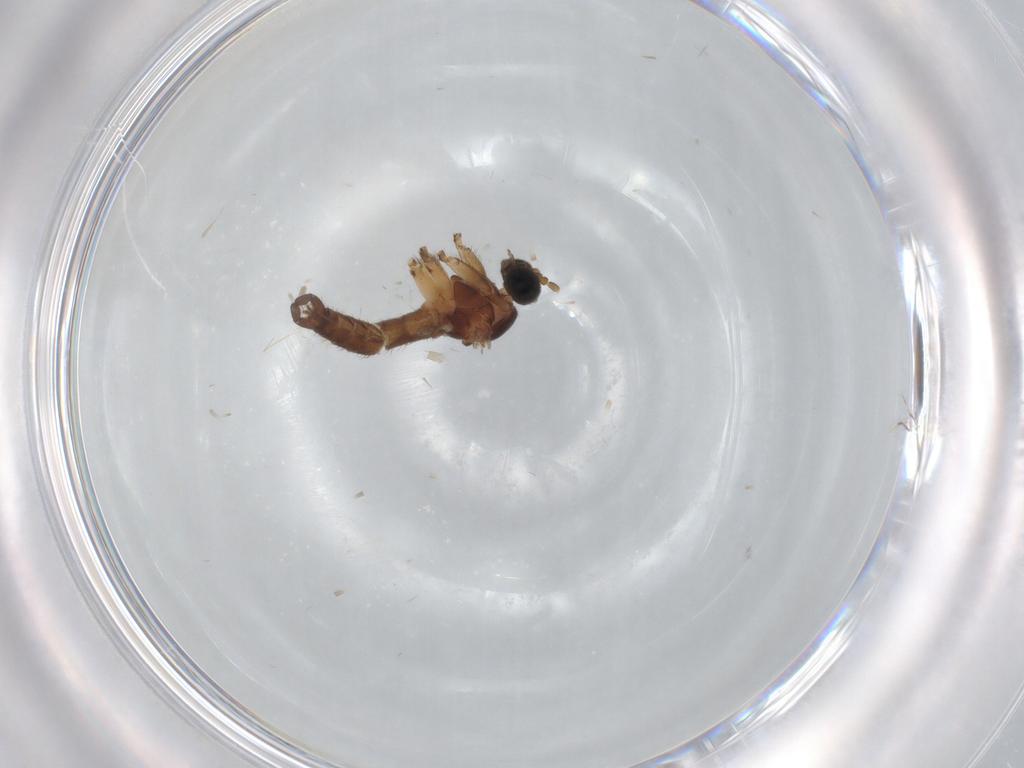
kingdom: Animalia
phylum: Arthropoda
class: Insecta
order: Diptera
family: Sciaridae
